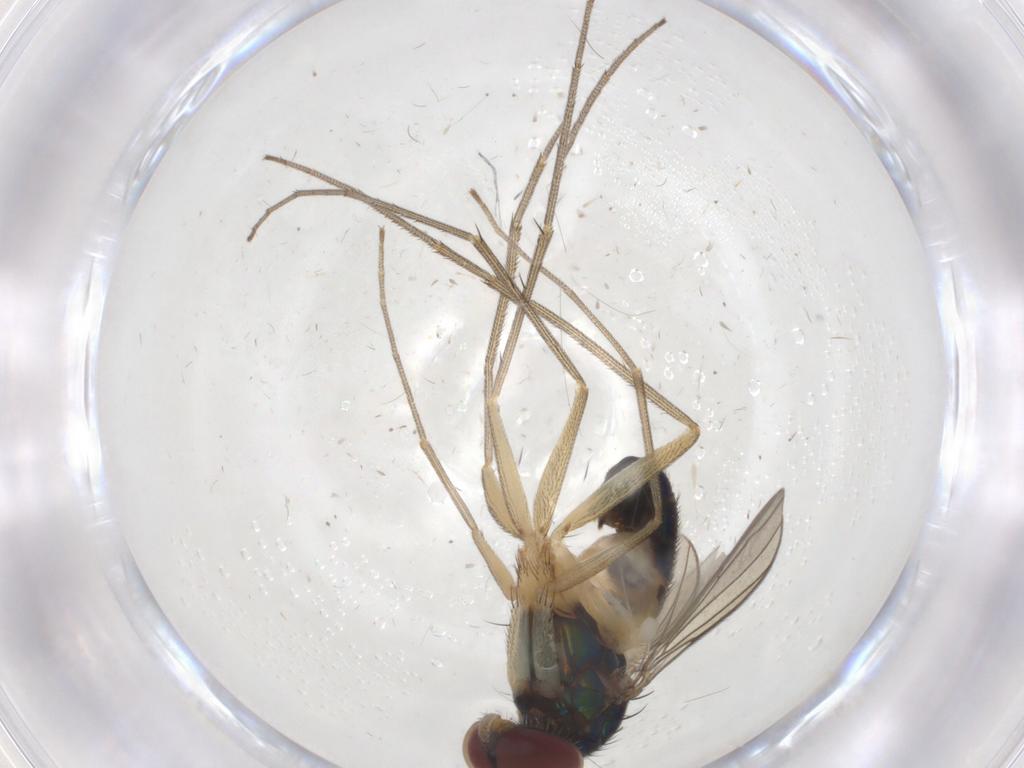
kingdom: Animalia
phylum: Arthropoda
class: Insecta
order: Diptera
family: Dolichopodidae
